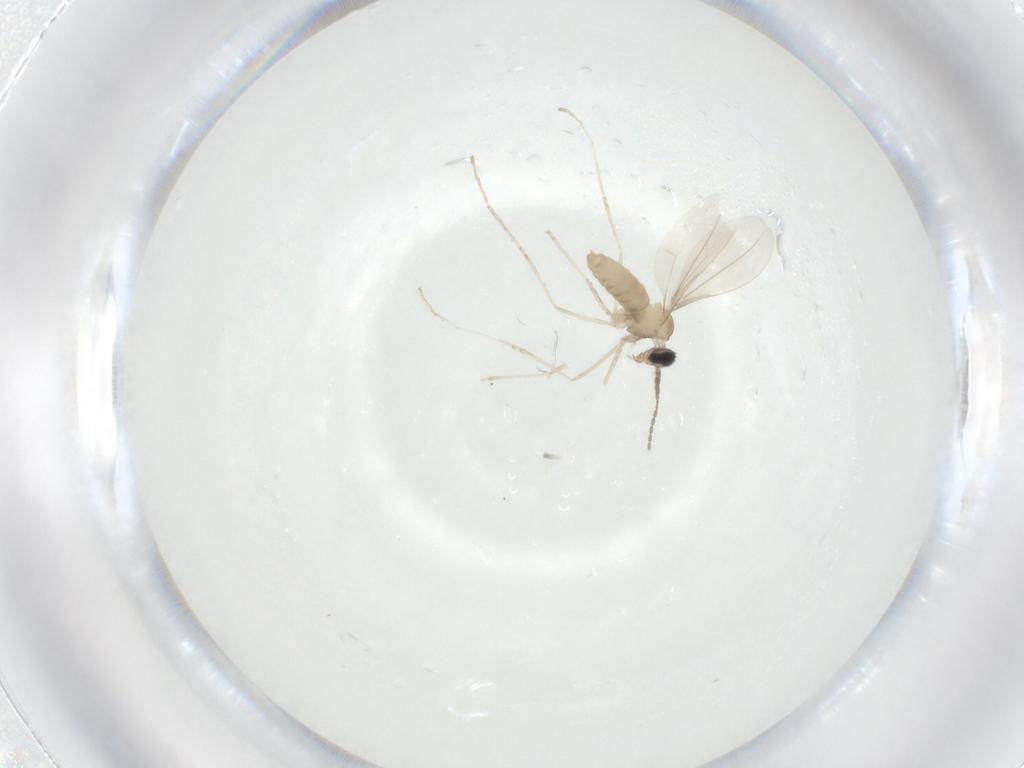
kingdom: Animalia
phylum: Arthropoda
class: Insecta
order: Diptera
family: Cecidomyiidae
